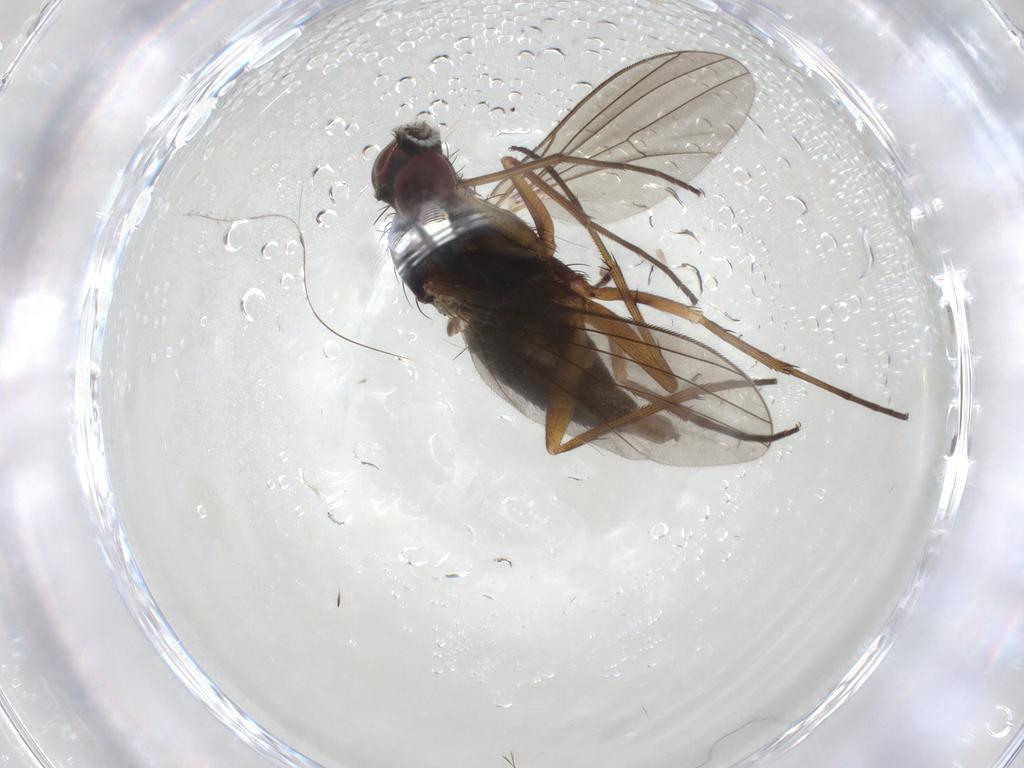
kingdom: Animalia
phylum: Arthropoda
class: Insecta
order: Diptera
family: Dolichopodidae
